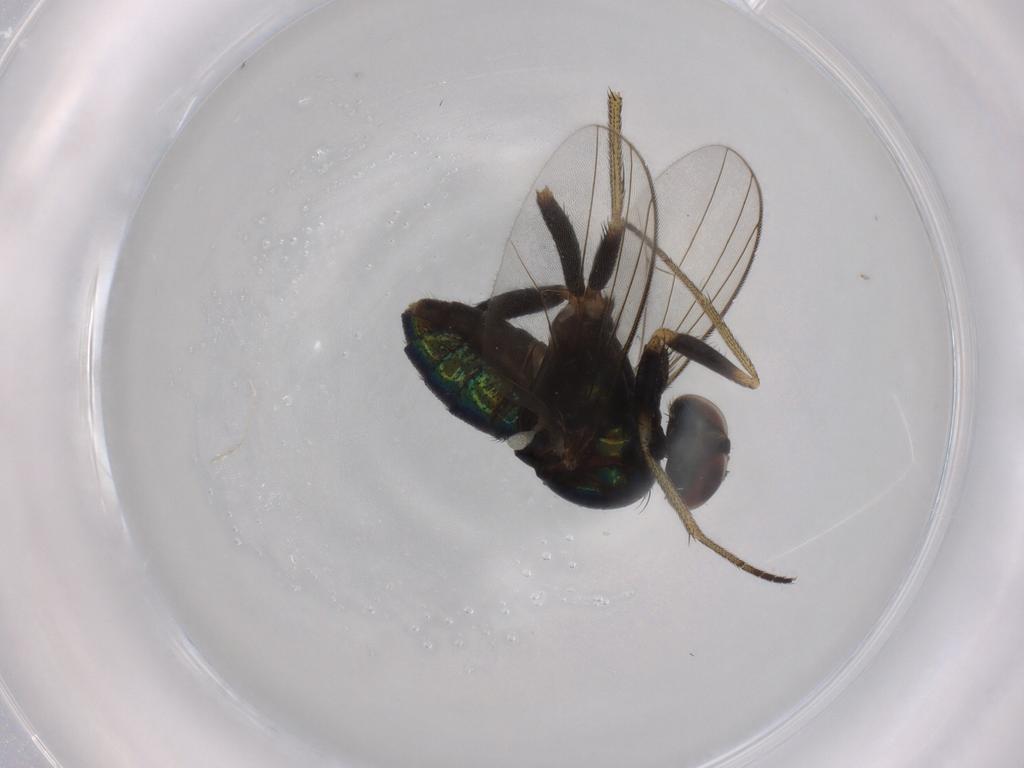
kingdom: Animalia
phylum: Arthropoda
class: Insecta
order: Diptera
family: Dolichopodidae
